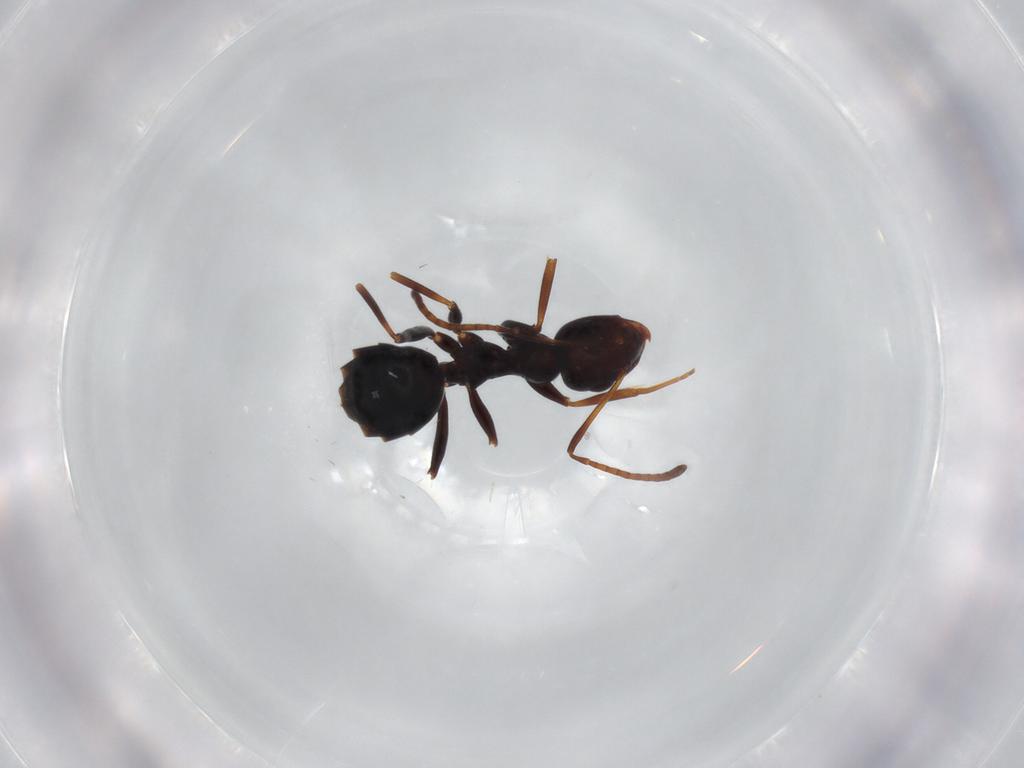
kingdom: Animalia
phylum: Arthropoda
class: Insecta
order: Hymenoptera
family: Formicidae
